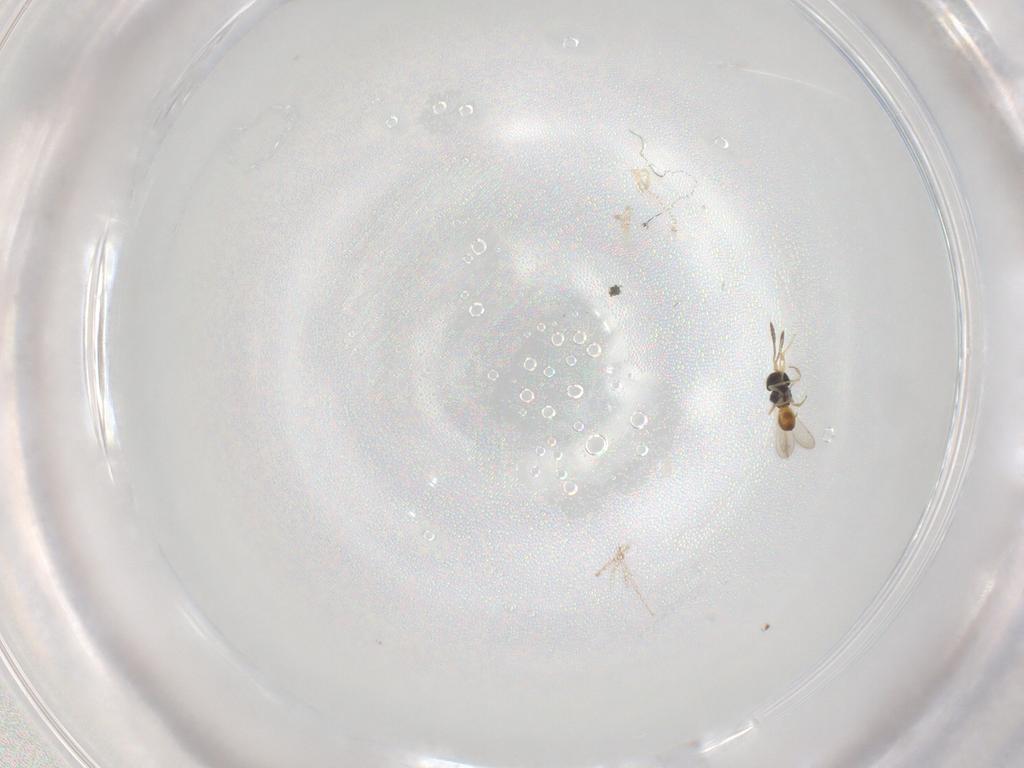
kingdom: Animalia
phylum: Arthropoda
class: Insecta
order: Hymenoptera
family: Scelionidae
